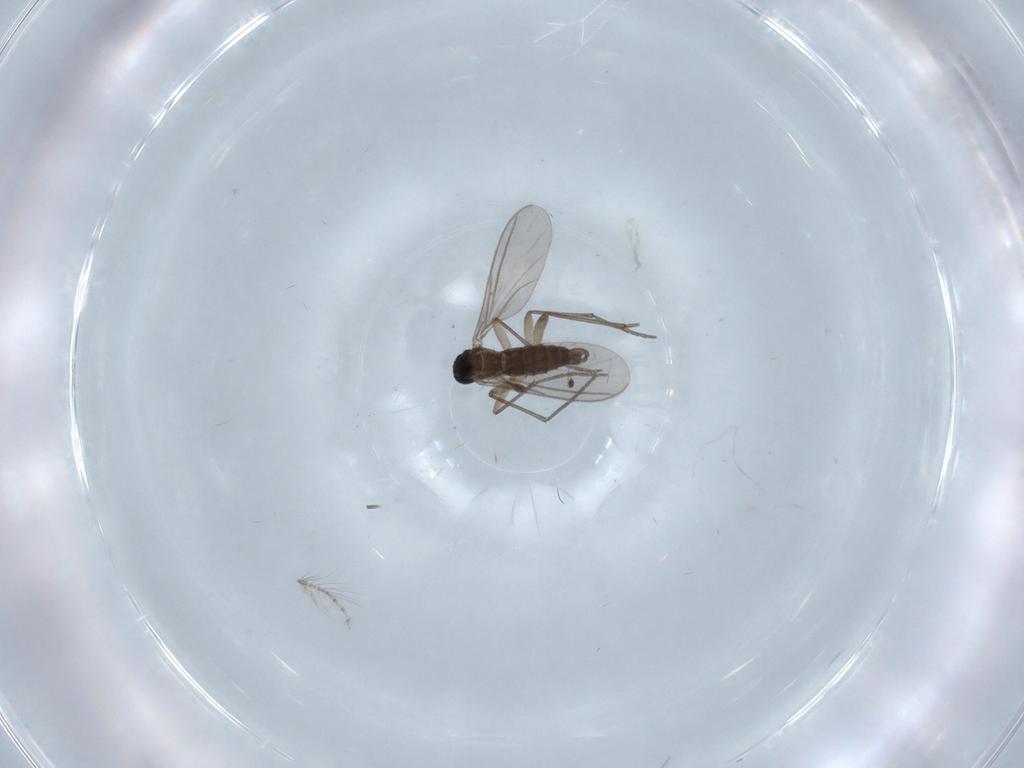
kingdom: Animalia
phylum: Arthropoda
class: Insecta
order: Diptera
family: Sciaridae
